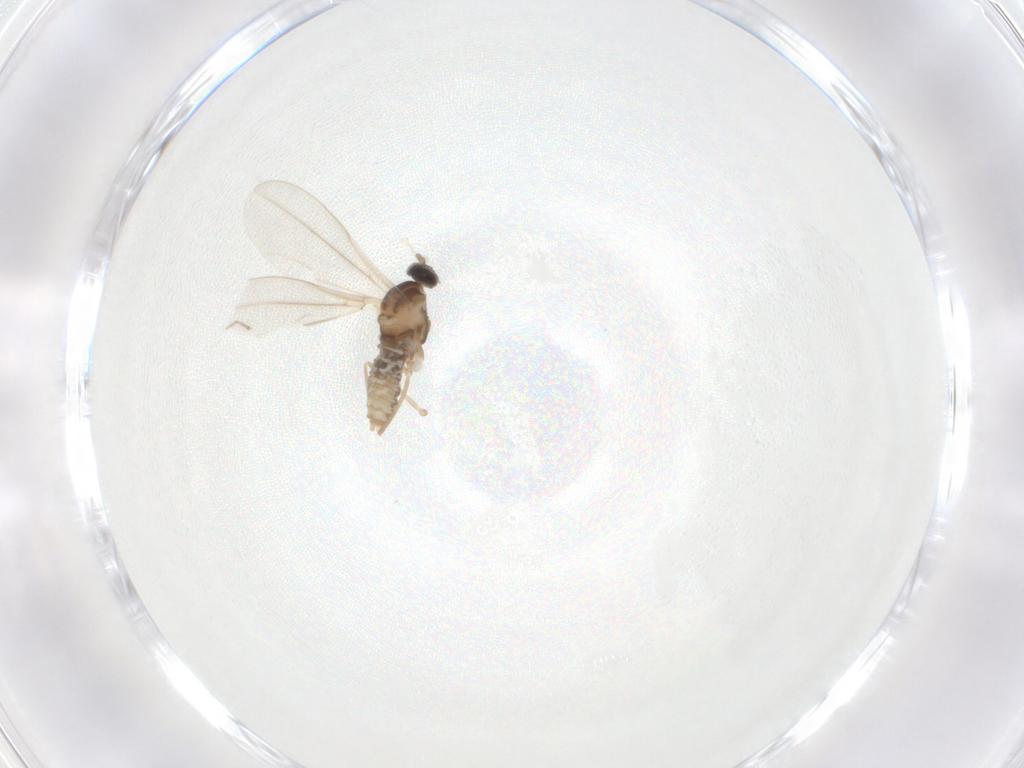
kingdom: Animalia
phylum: Arthropoda
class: Insecta
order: Diptera
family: Cecidomyiidae
